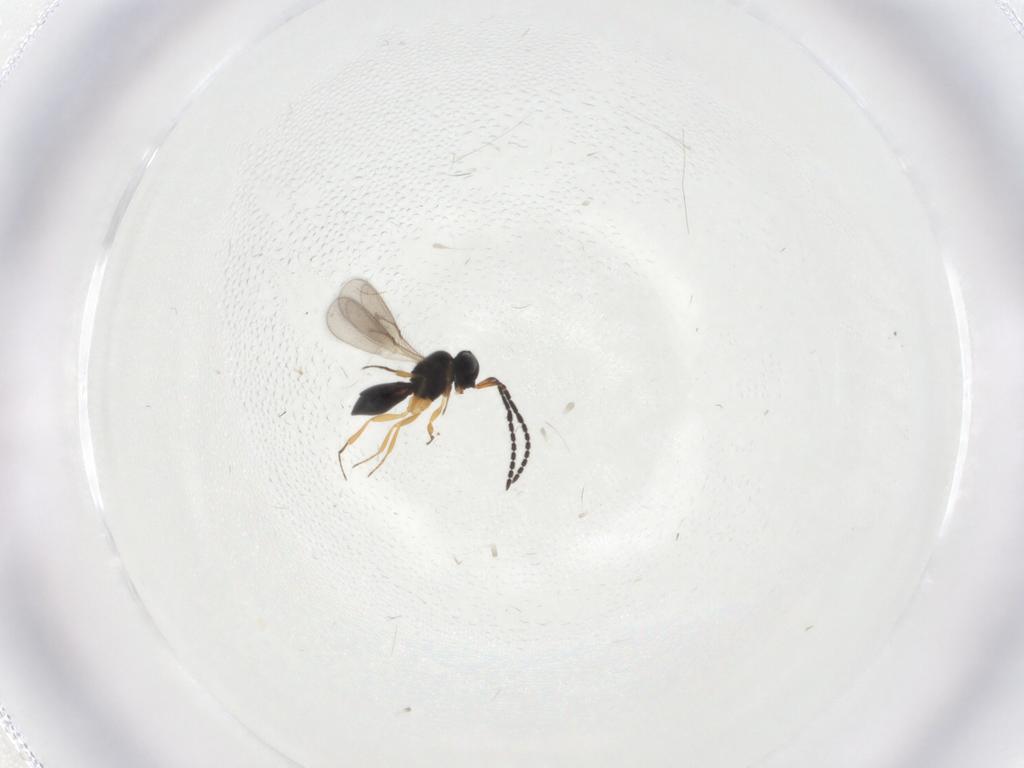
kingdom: Animalia
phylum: Arthropoda
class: Insecta
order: Hymenoptera
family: Scelionidae
